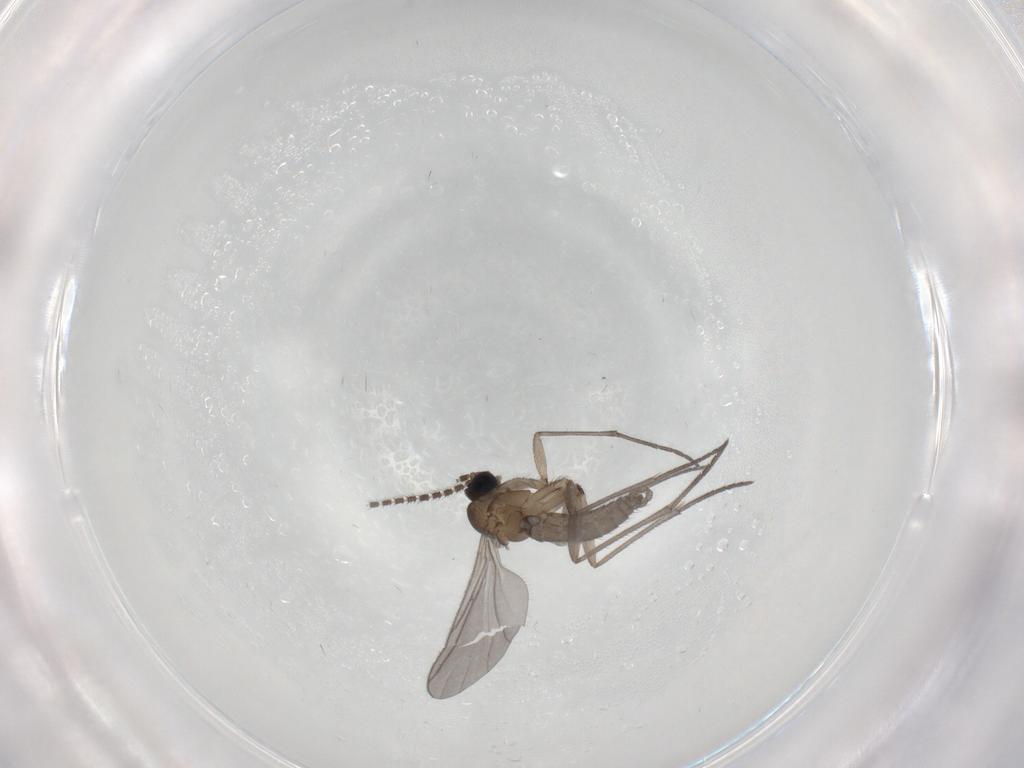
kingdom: Animalia
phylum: Arthropoda
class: Insecta
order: Diptera
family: Sciaridae
